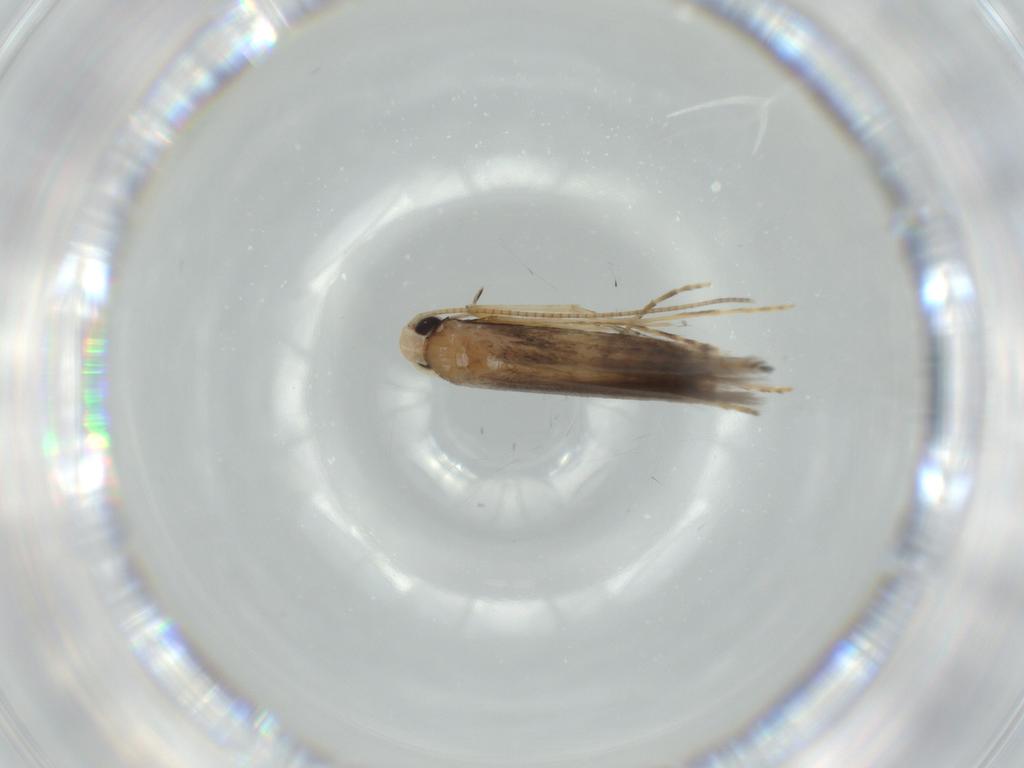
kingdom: Animalia
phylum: Arthropoda
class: Insecta
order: Lepidoptera
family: Gracillariidae
